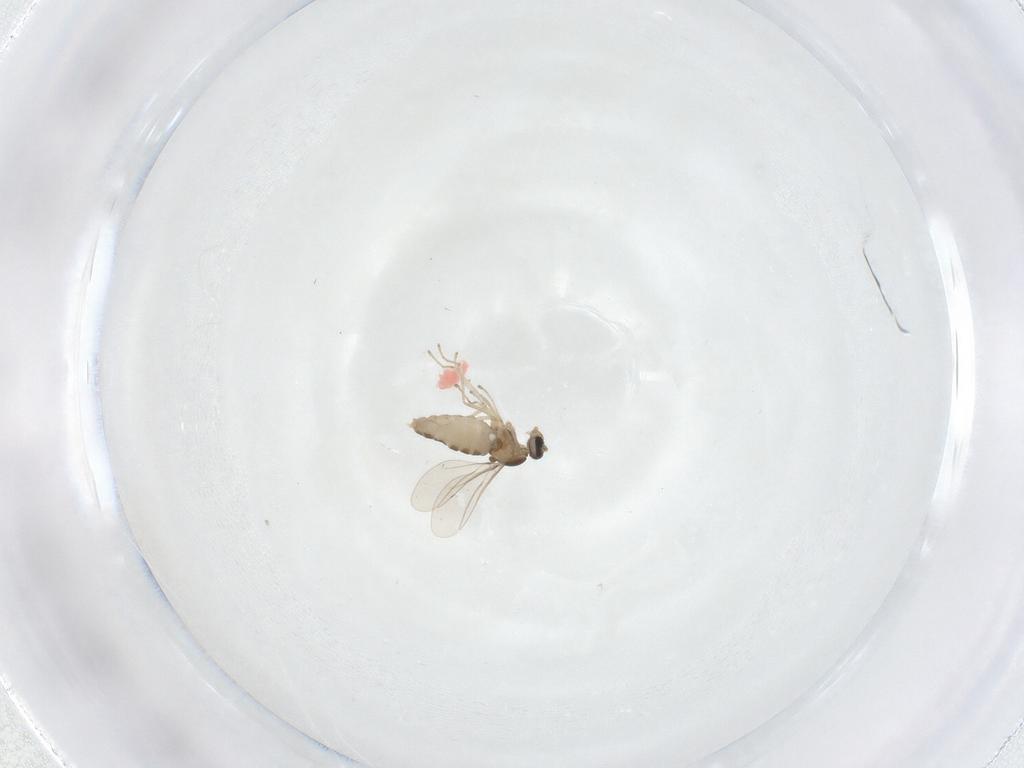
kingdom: Animalia
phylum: Arthropoda
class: Insecta
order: Diptera
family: Cecidomyiidae
